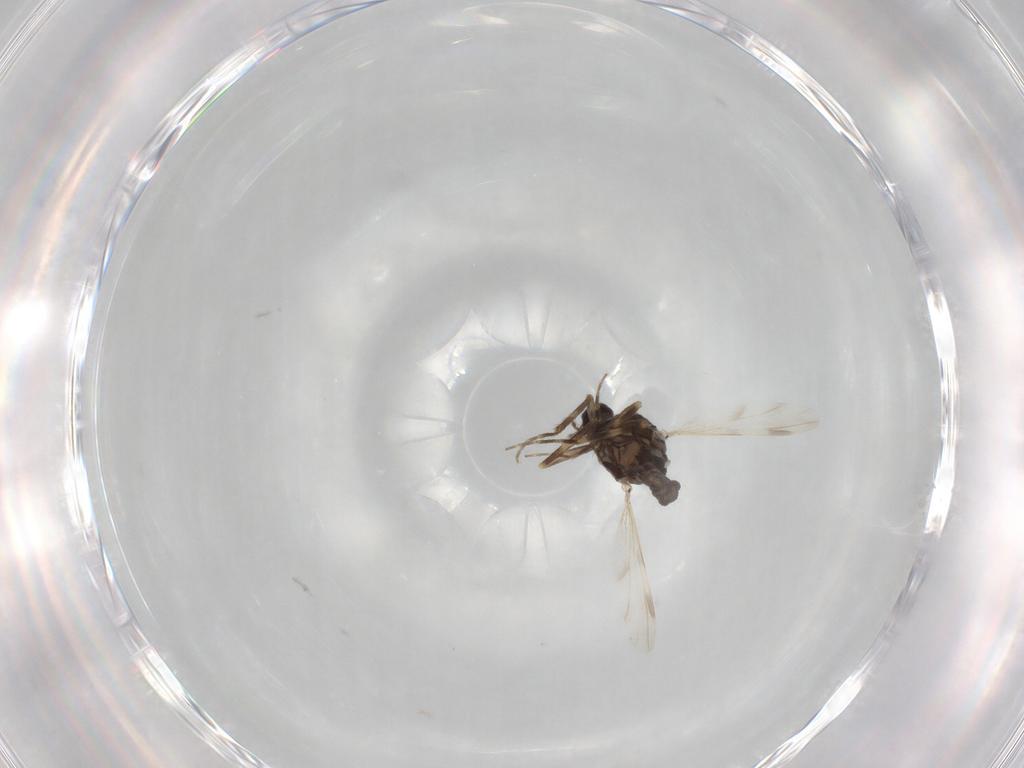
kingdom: Animalia
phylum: Arthropoda
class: Insecta
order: Diptera
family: Ceratopogonidae
